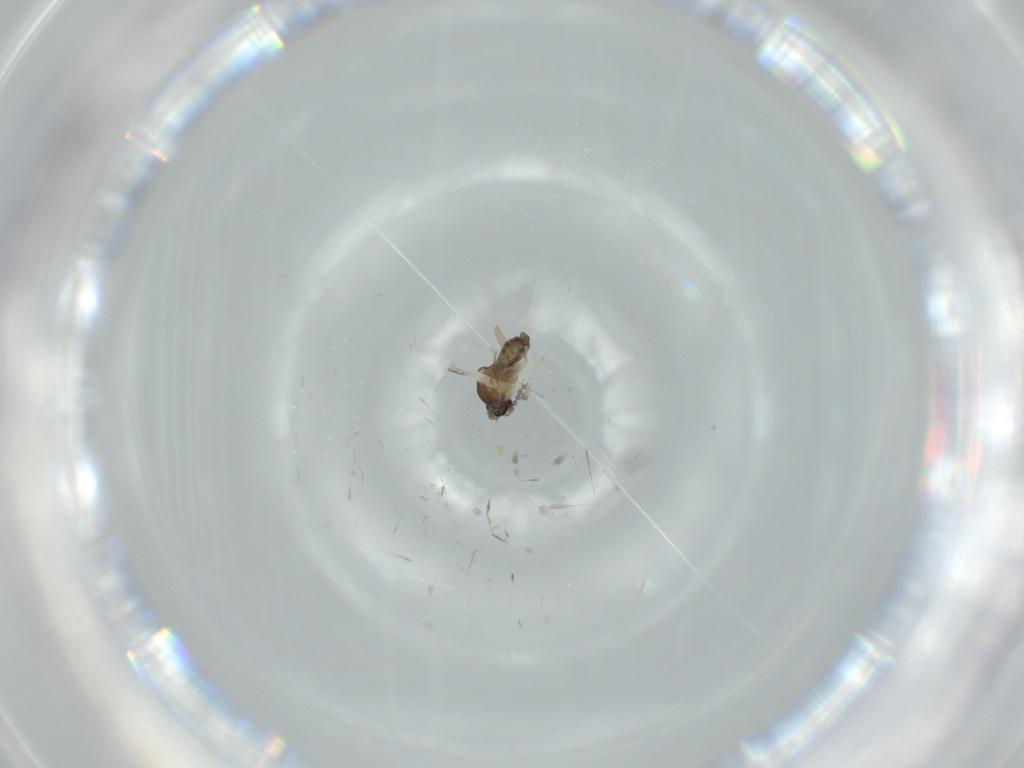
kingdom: Animalia
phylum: Arthropoda
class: Insecta
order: Diptera
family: Cecidomyiidae
